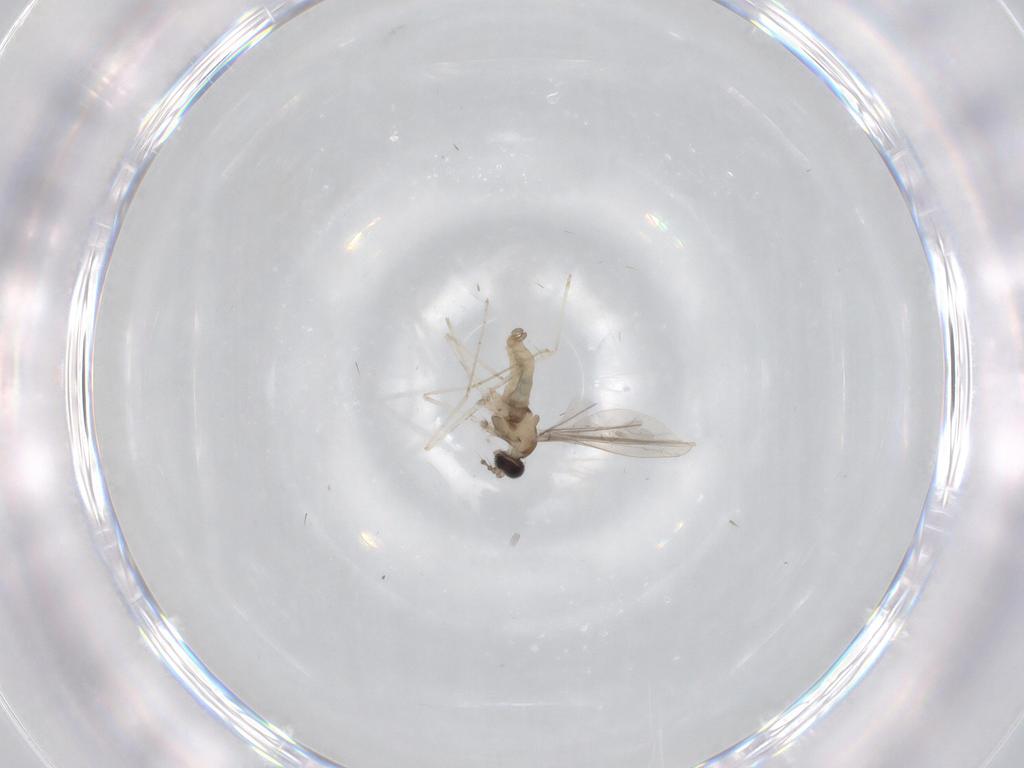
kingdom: Animalia
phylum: Arthropoda
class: Insecta
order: Diptera
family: Cecidomyiidae
